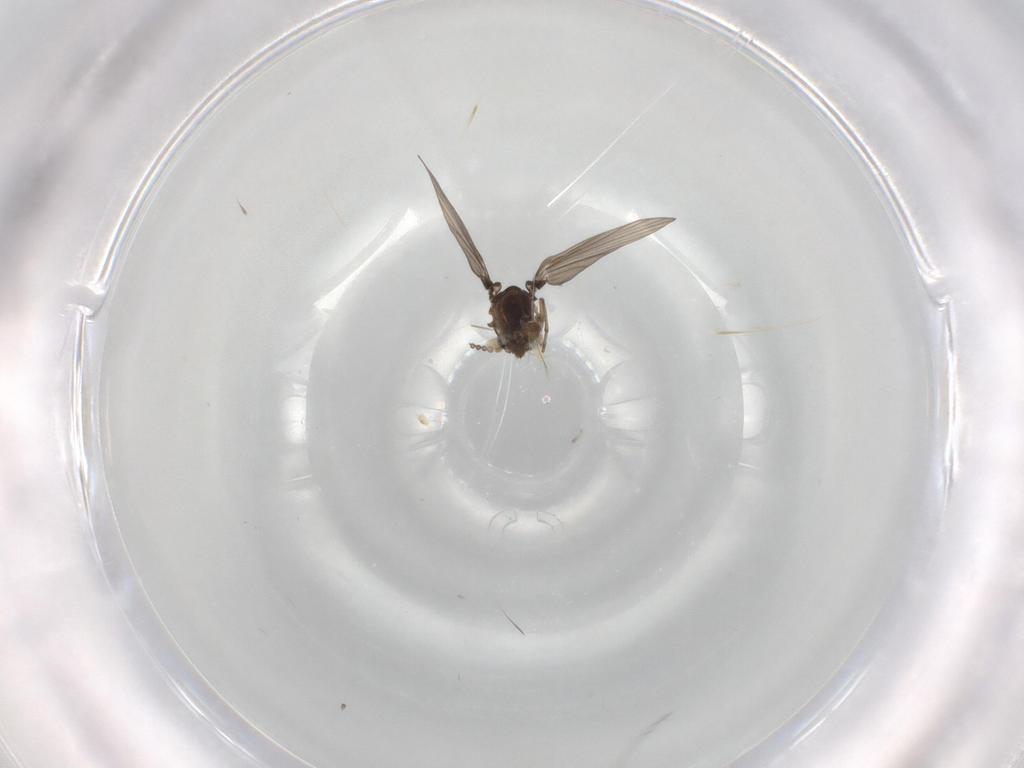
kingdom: Animalia
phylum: Arthropoda
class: Insecta
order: Diptera
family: Psychodidae
